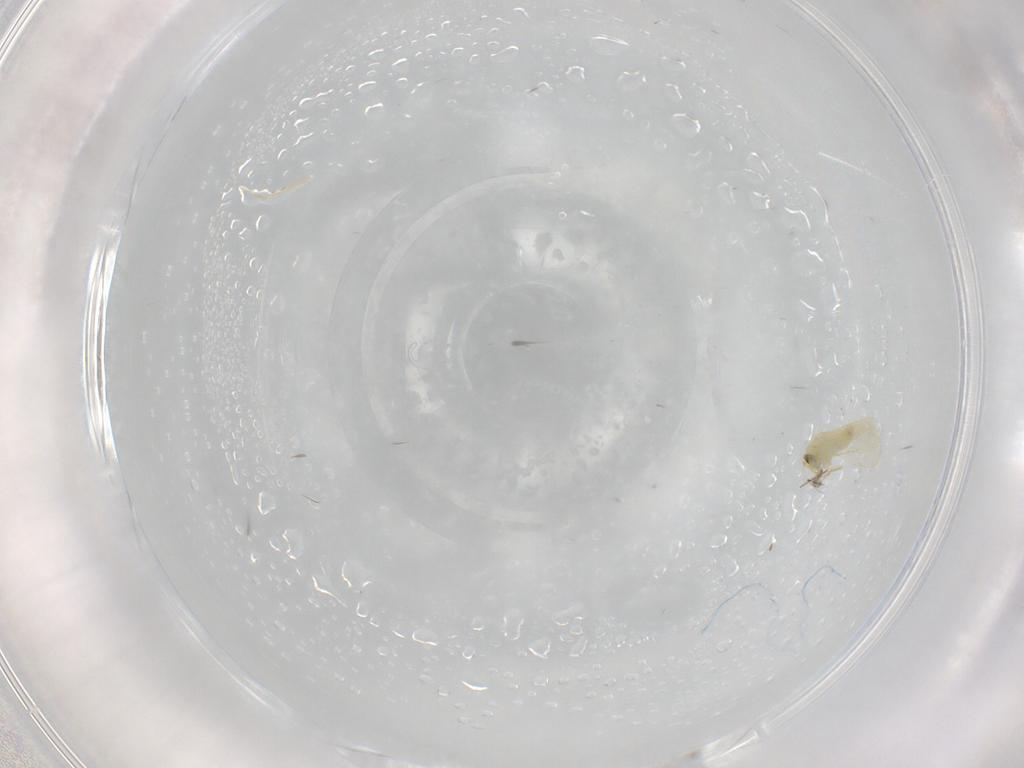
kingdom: Animalia
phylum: Arthropoda
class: Insecta
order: Hemiptera
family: Aleyrodidae
